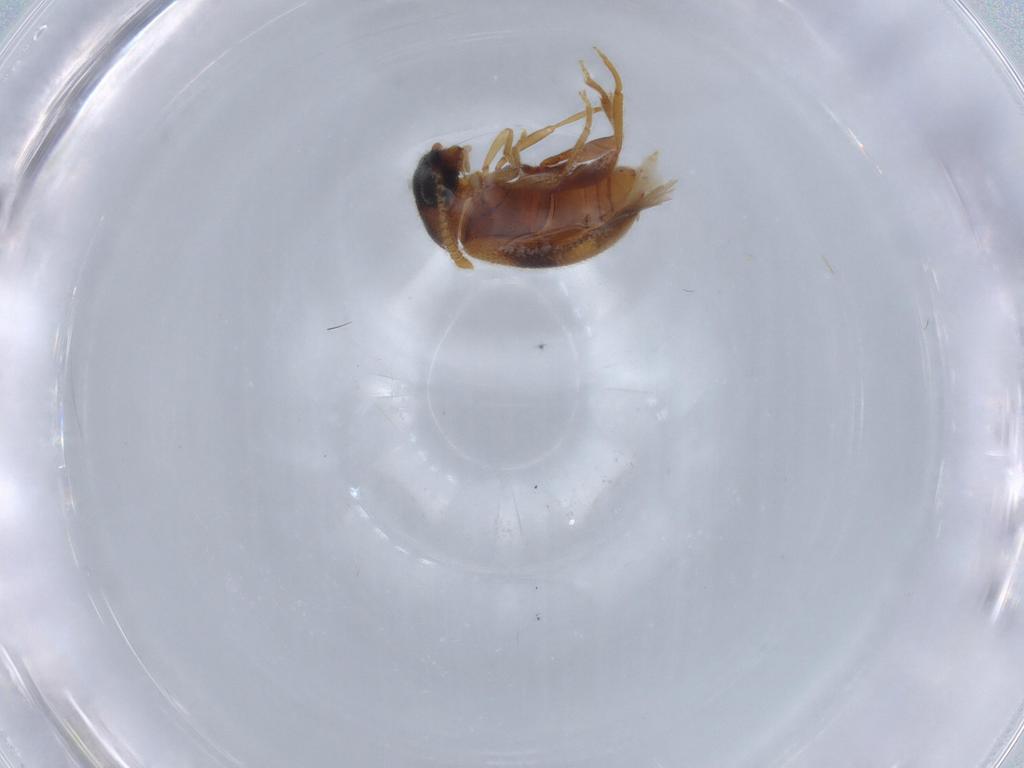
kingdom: Animalia
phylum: Arthropoda
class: Insecta
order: Coleoptera
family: Aderidae
